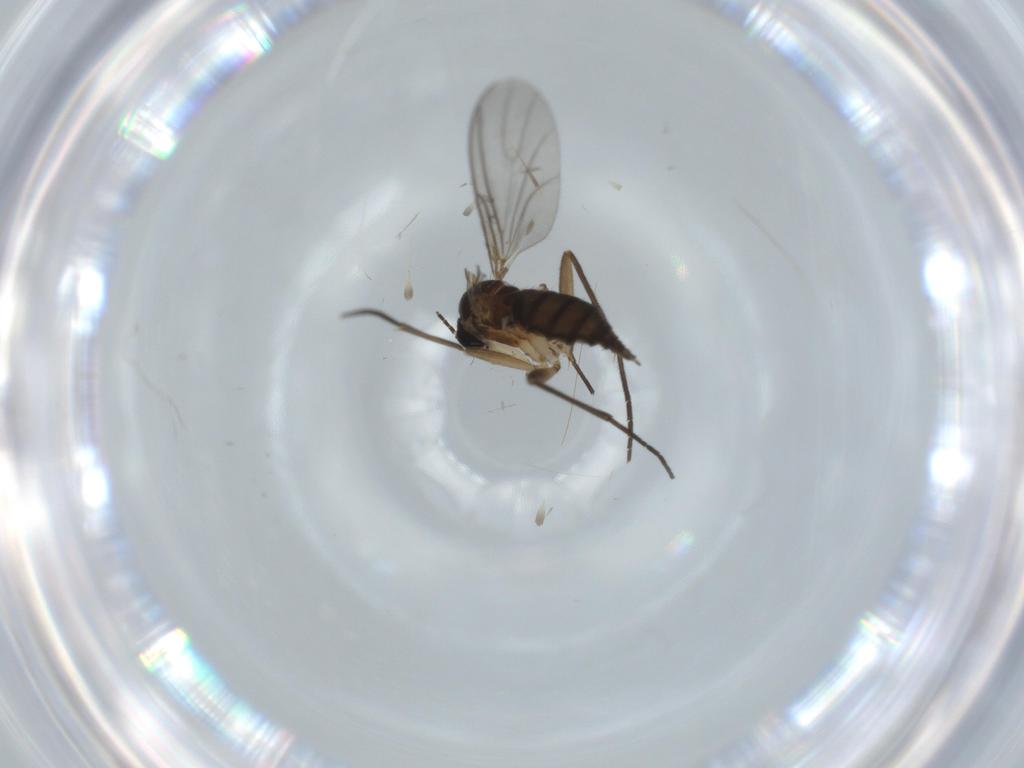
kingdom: Animalia
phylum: Arthropoda
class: Insecta
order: Diptera
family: Sciaridae
